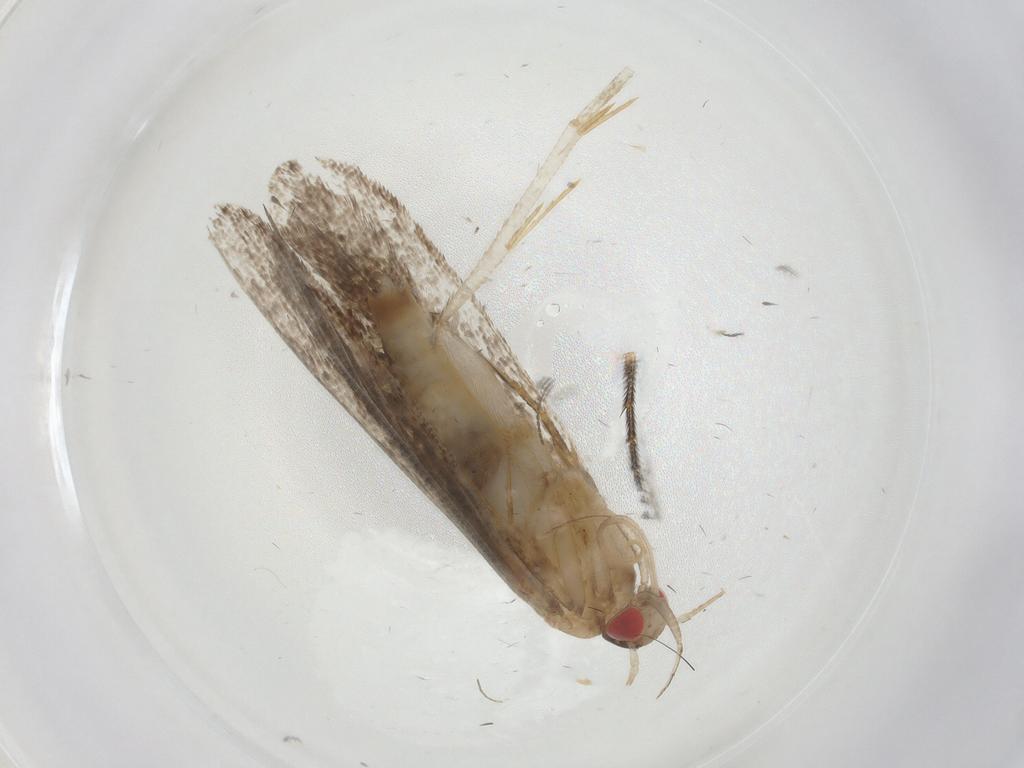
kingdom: Animalia
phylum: Arthropoda
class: Insecta
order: Lepidoptera
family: Gelechiidae
